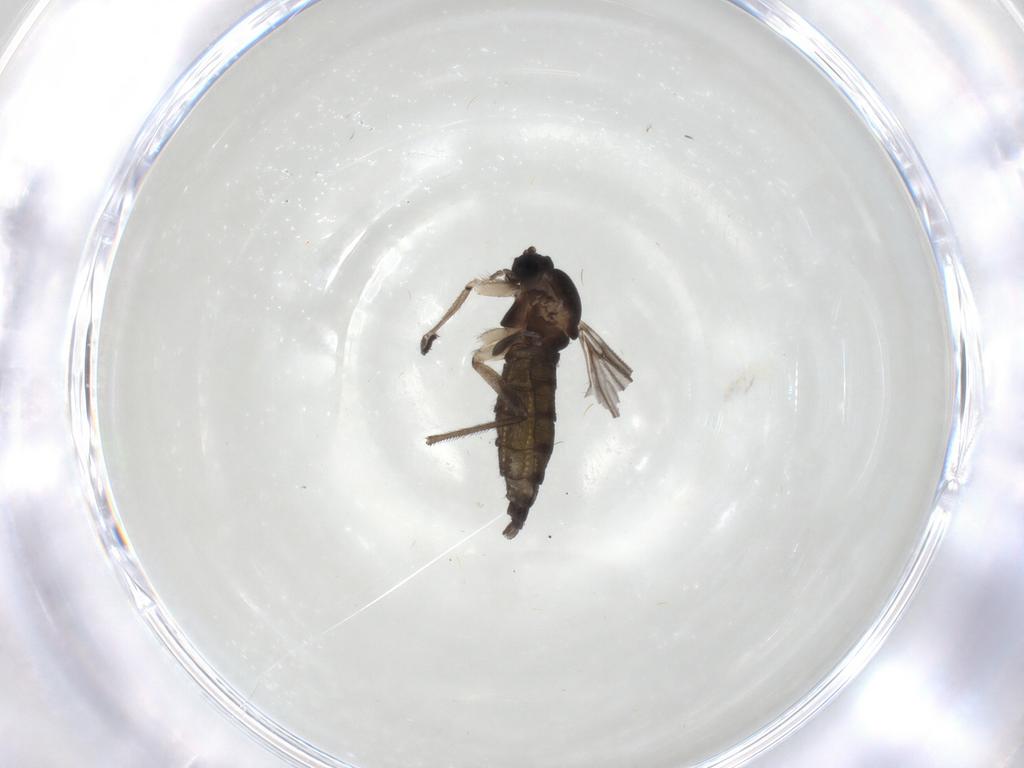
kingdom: Animalia
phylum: Arthropoda
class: Insecta
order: Diptera
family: Sciaridae
